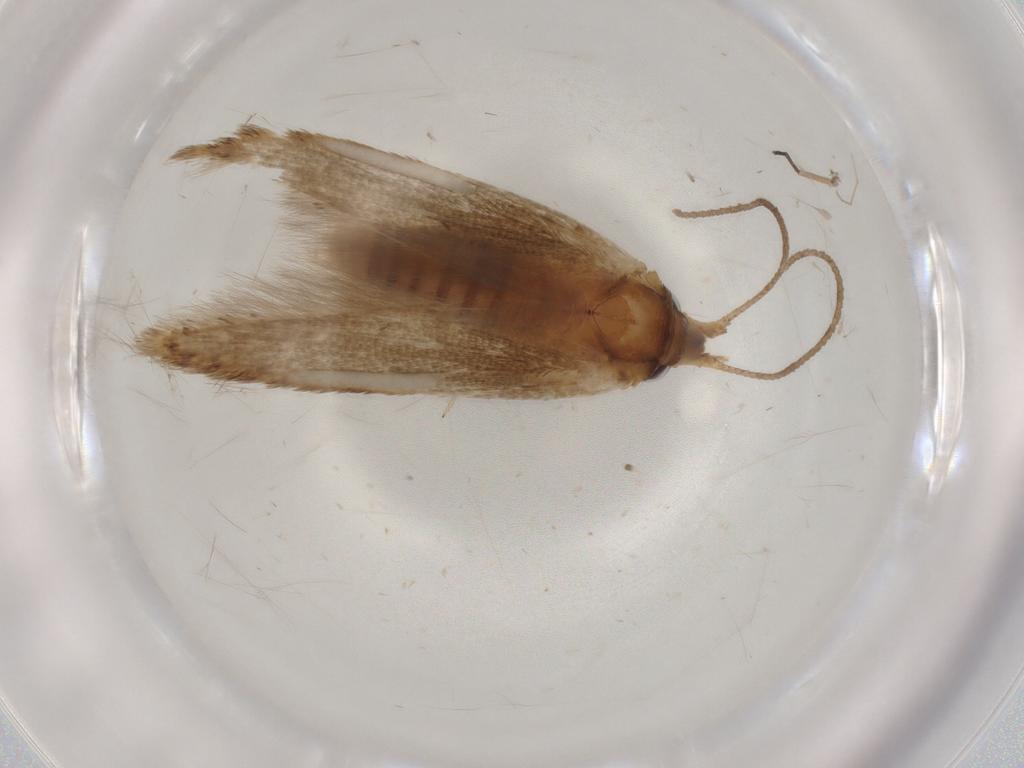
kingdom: Animalia
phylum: Arthropoda
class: Insecta
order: Lepidoptera
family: Blastobasidae
